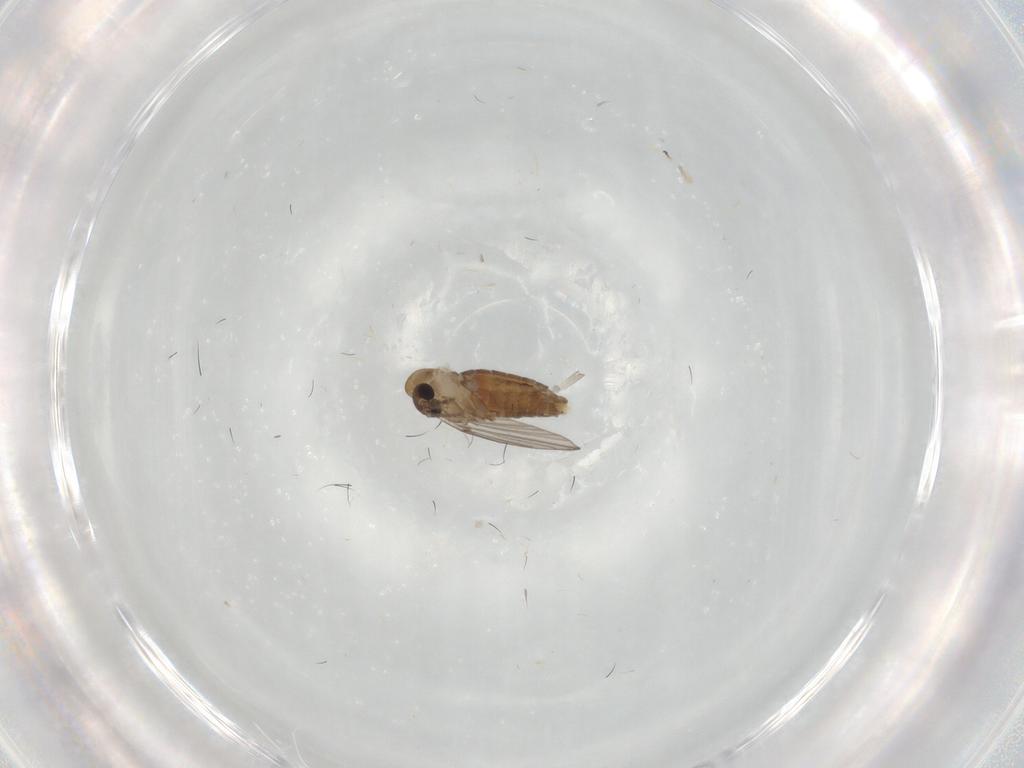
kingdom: Animalia
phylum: Arthropoda
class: Insecta
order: Diptera
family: Psychodidae
